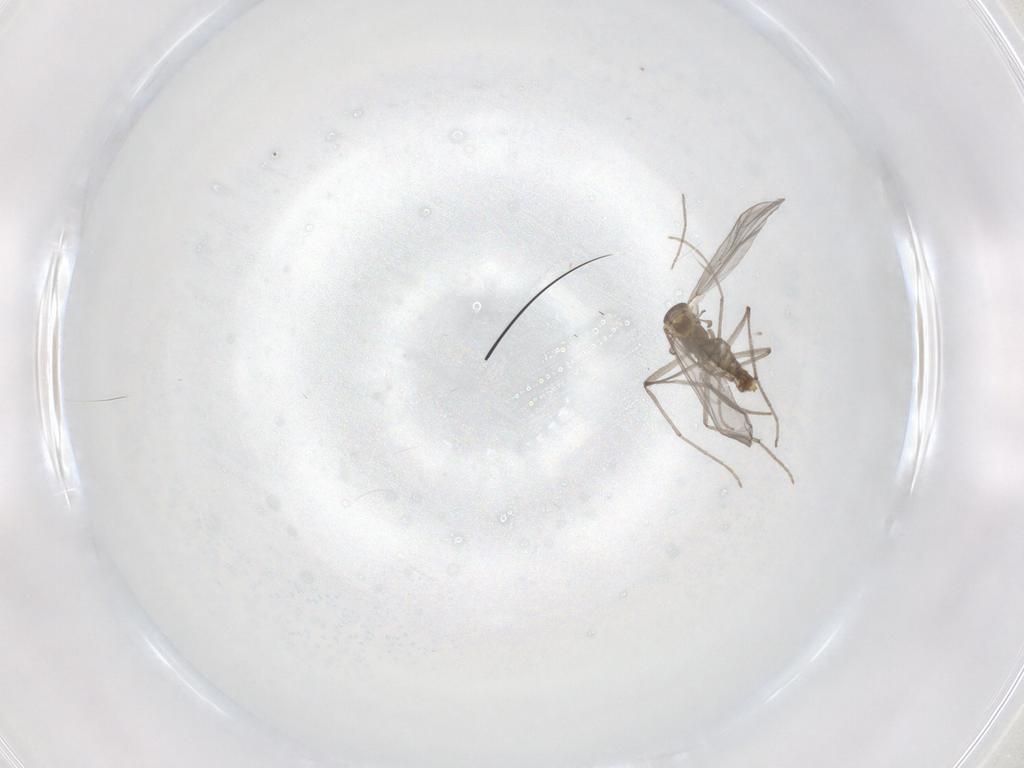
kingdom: Animalia
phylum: Arthropoda
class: Insecta
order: Diptera
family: Chironomidae
